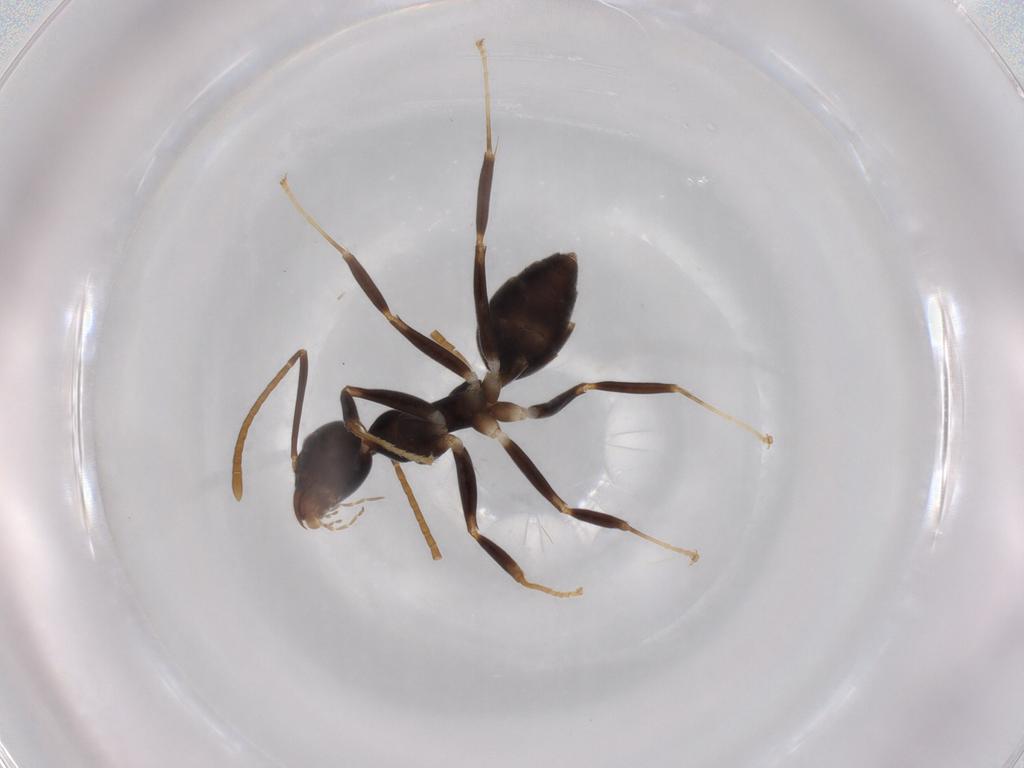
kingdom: Animalia
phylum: Arthropoda
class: Insecta
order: Hymenoptera
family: Formicidae
